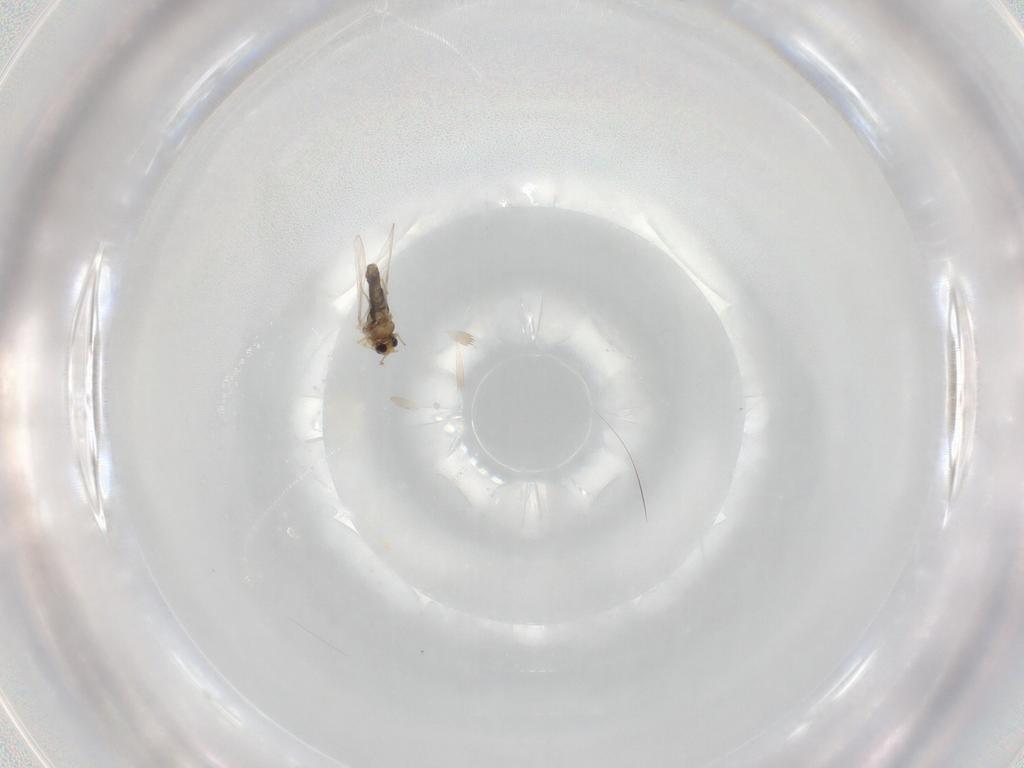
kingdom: Animalia
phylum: Arthropoda
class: Insecta
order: Diptera
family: Chironomidae
